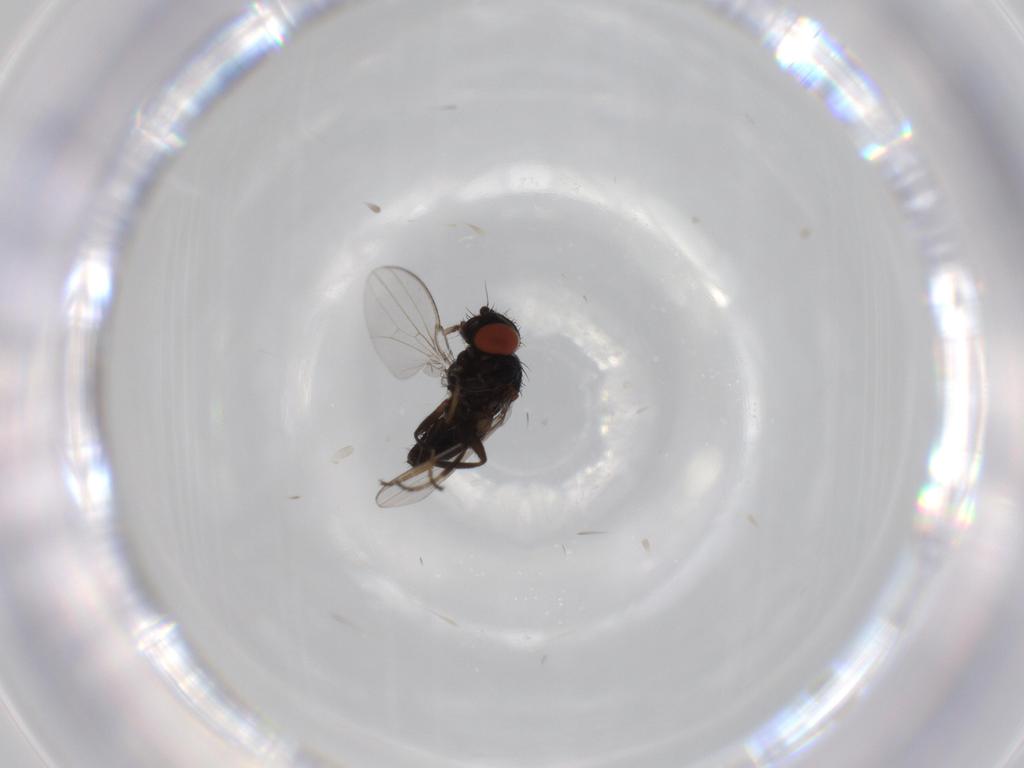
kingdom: Animalia
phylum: Arthropoda
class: Insecta
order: Diptera
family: Milichiidae
